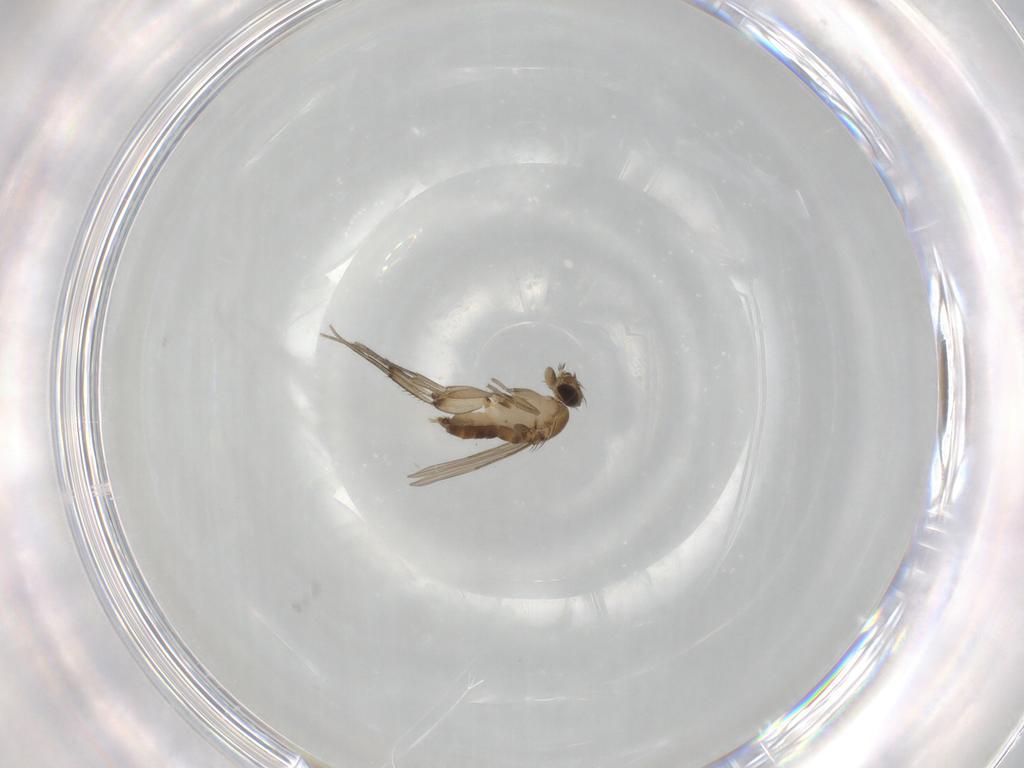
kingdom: Animalia
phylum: Arthropoda
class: Insecta
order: Diptera
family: Phoridae
